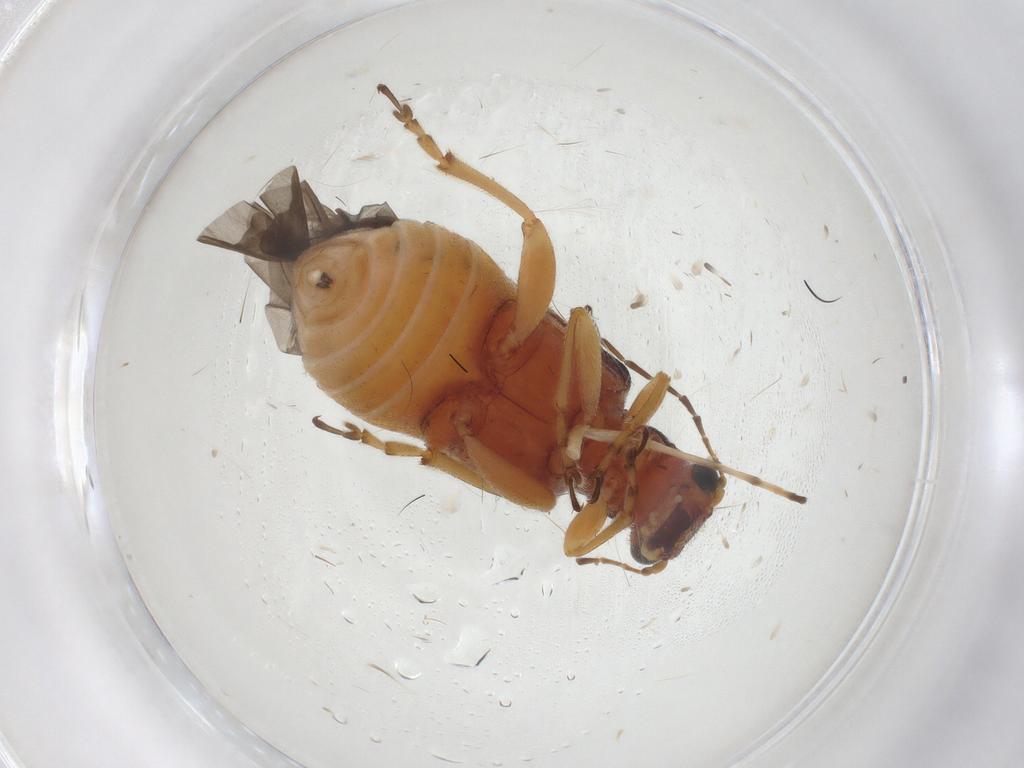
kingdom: Animalia
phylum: Arthropoda
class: Insecta
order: Coleoptera
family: Chrysomelidae
